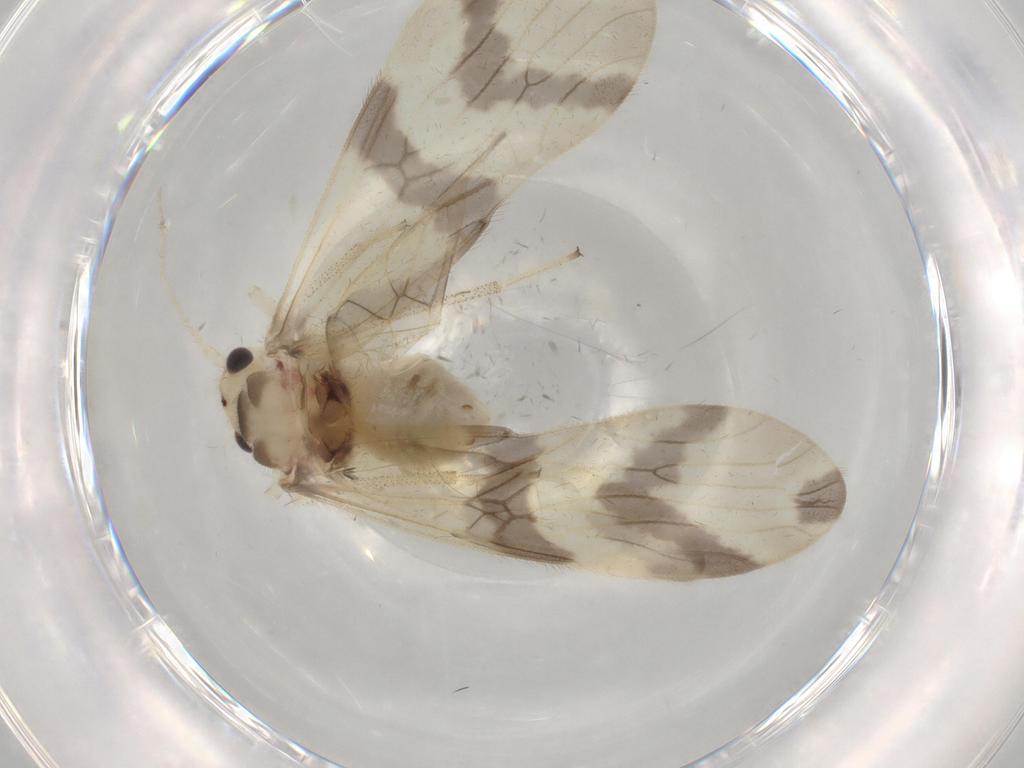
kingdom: Animalia
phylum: Arthropoda
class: Insecta
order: Psocodea
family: Amphipsocidae
